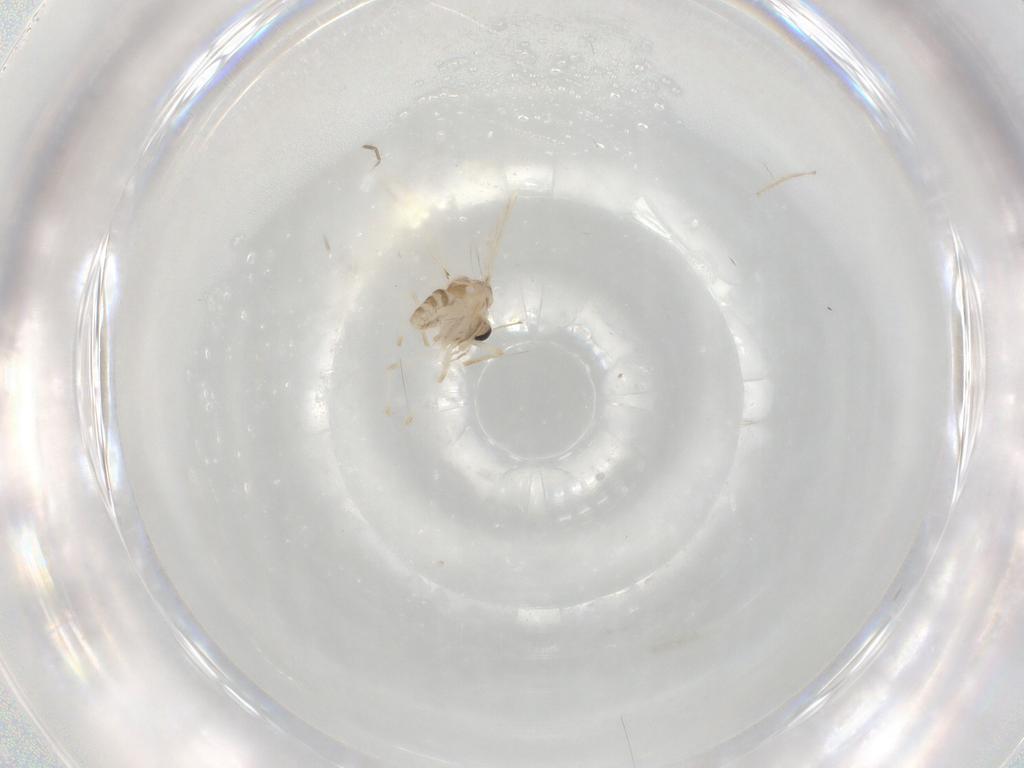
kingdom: Animalia
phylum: Arthropoda
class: Insecta
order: Diptera
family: Chironomidae
